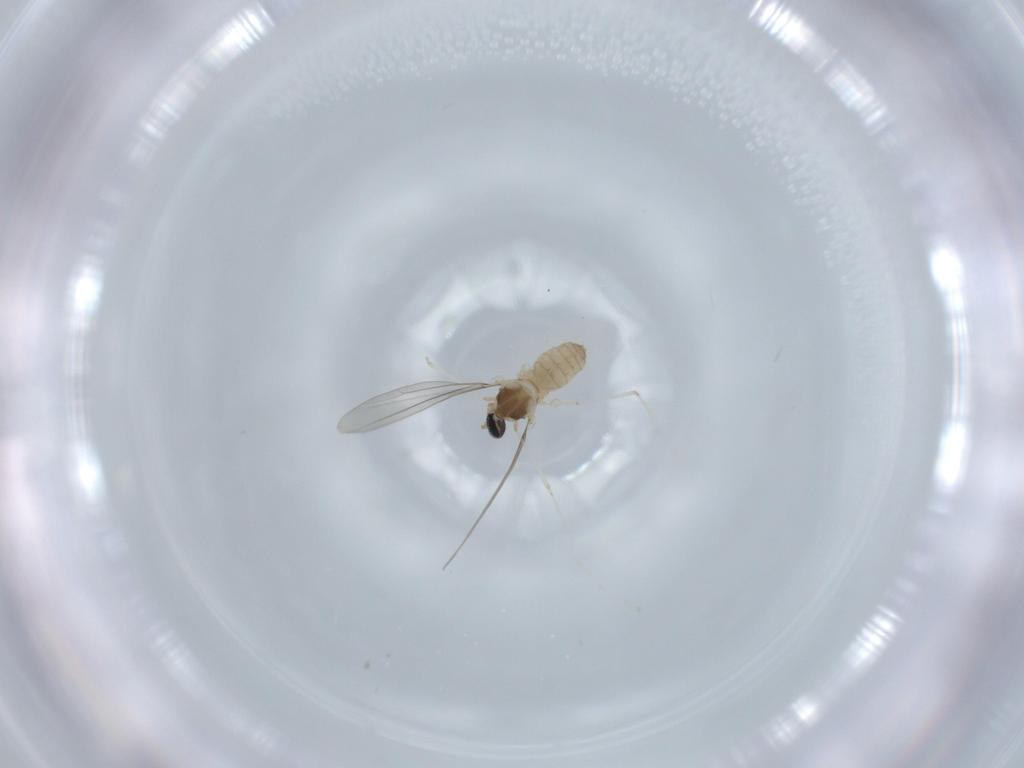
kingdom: Animalia
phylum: Arthropoda
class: Insecta
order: Diptera
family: Cecidomyiidae
